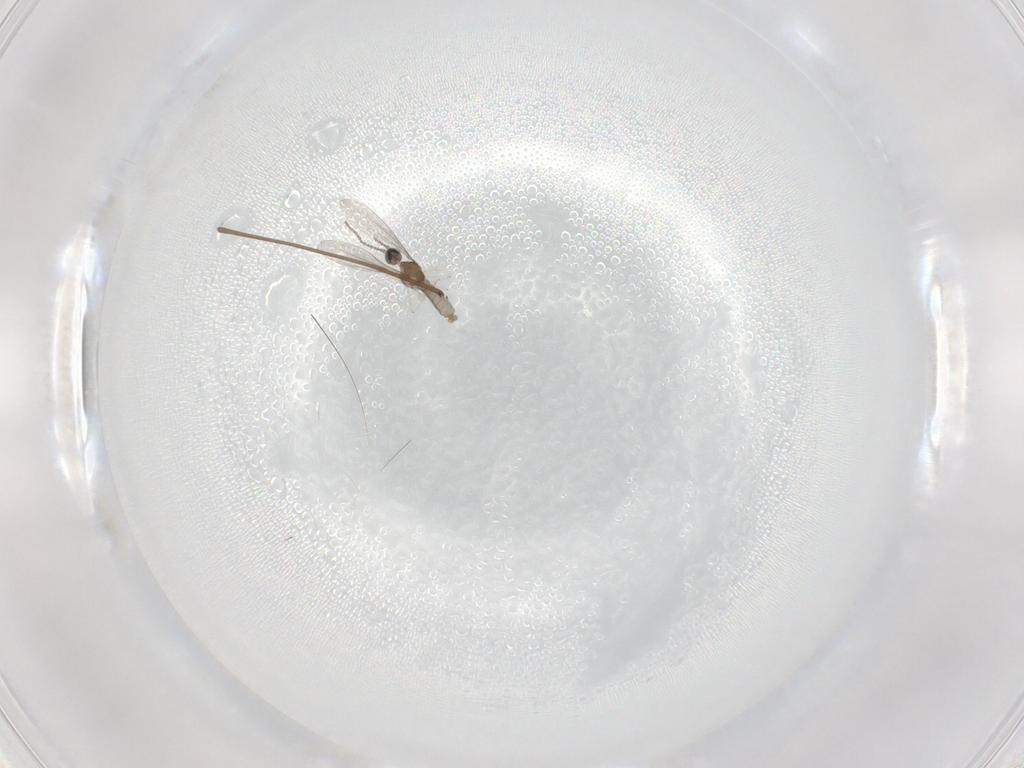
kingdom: Animalia
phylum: Arthropoda
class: Insecta
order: Diptera
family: Cecidomyiidae
